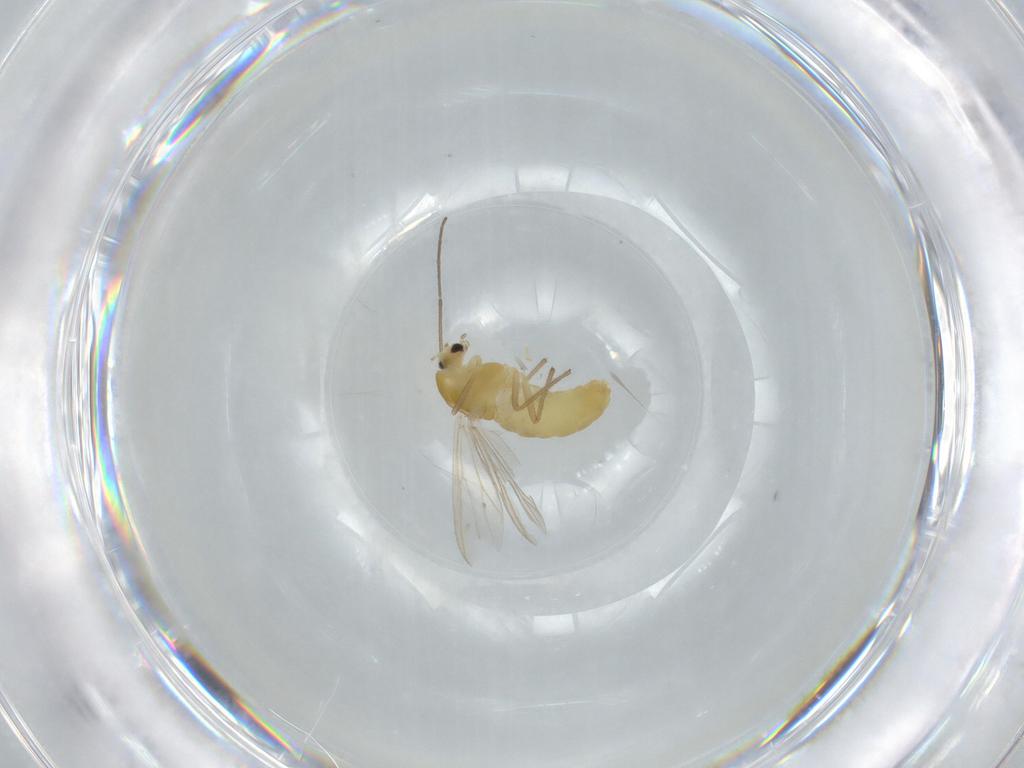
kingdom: Animalia
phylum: Arthropoda
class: Insecta
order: Diptera
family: Chironomidae
